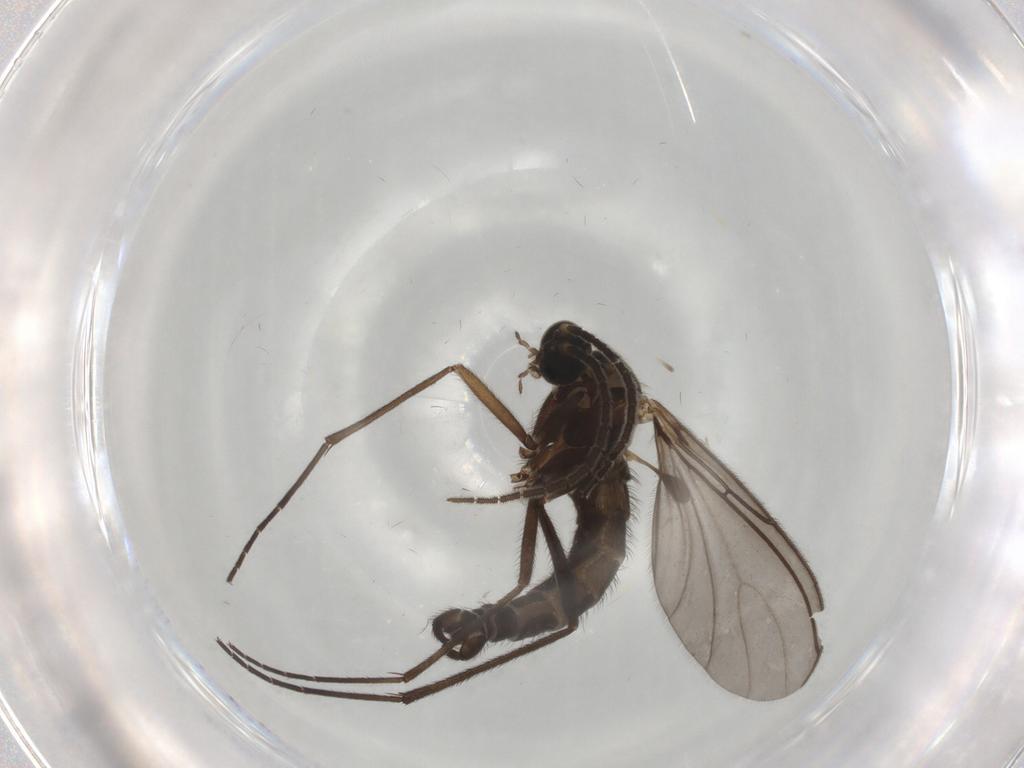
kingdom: Animalia
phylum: Arthropoda
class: Insecta
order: Diptera
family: Sciaridae
